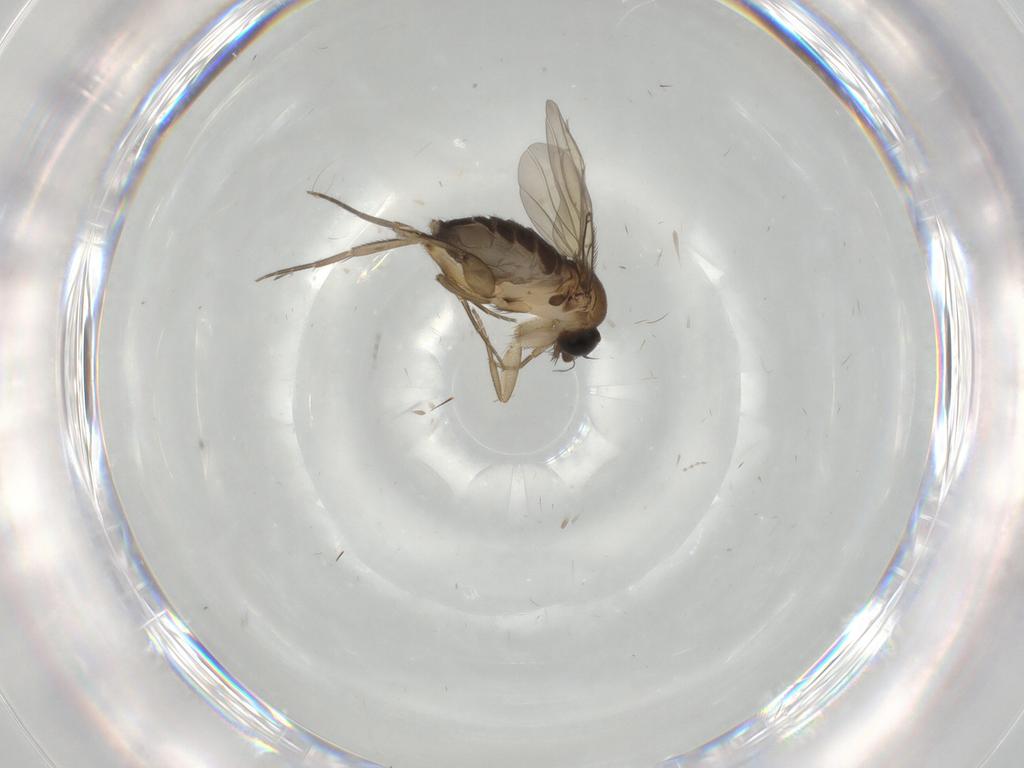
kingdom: Animalia
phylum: Arthropoda
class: Insecta
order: Diptera
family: Phoridae
